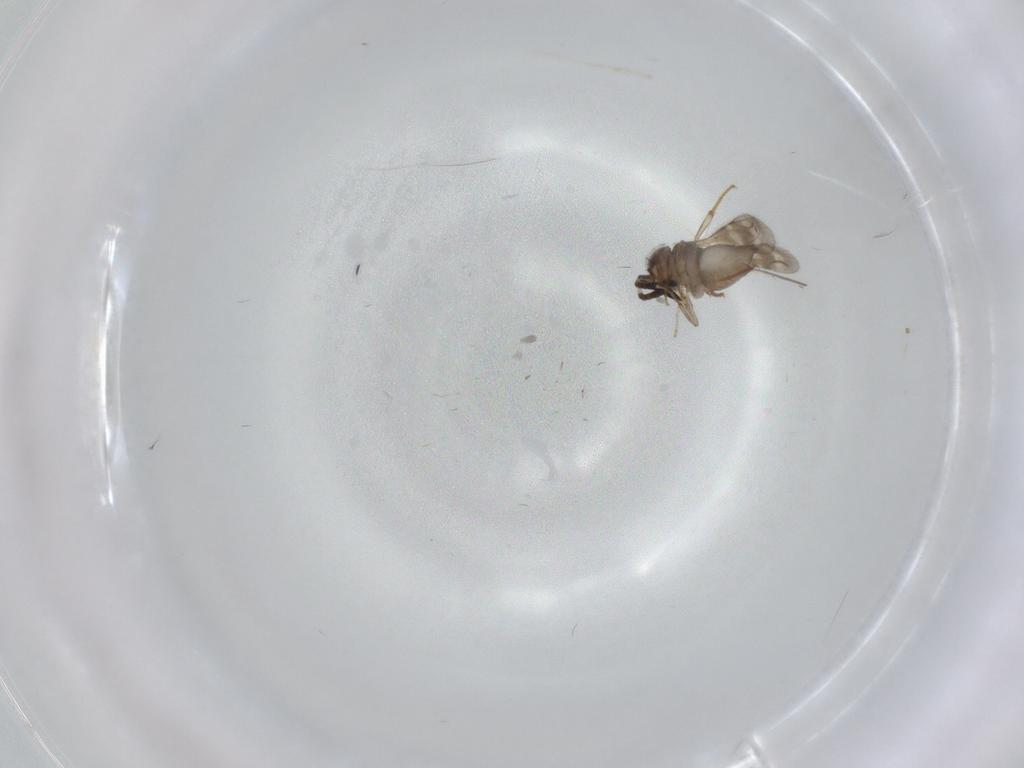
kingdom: Animalia
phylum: Arthropoda
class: Insecta
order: Hymenoptera
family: Formicidae
